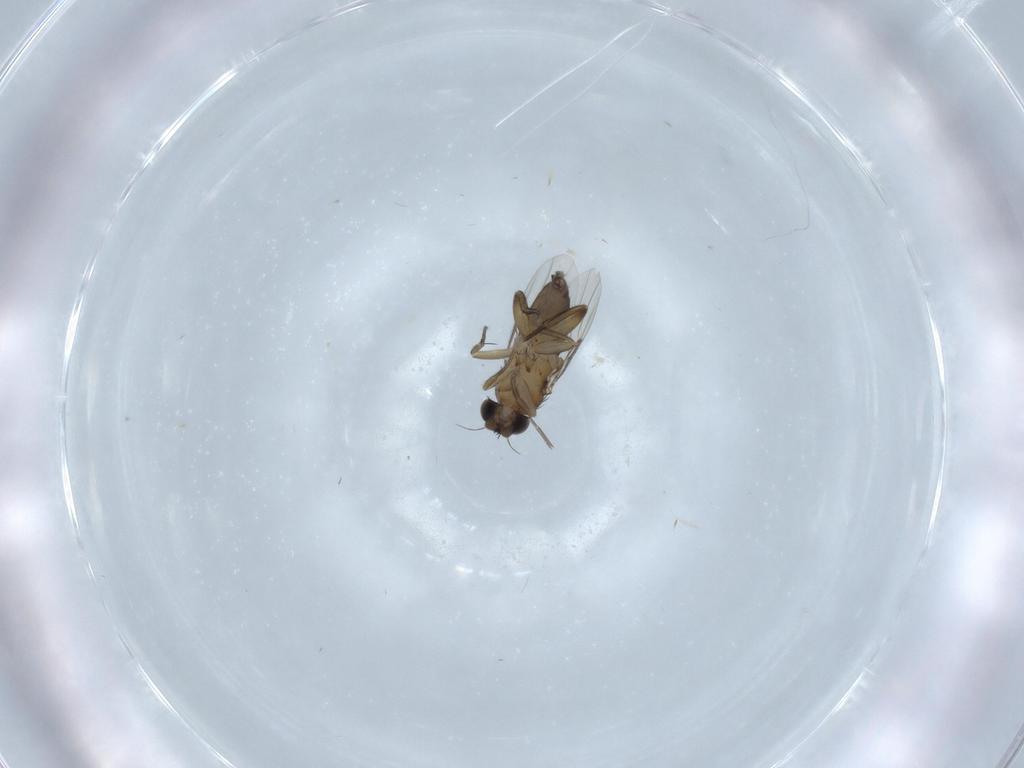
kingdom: Animalia
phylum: Arthropoda
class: Insecta
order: Diptera
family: Phoridae
